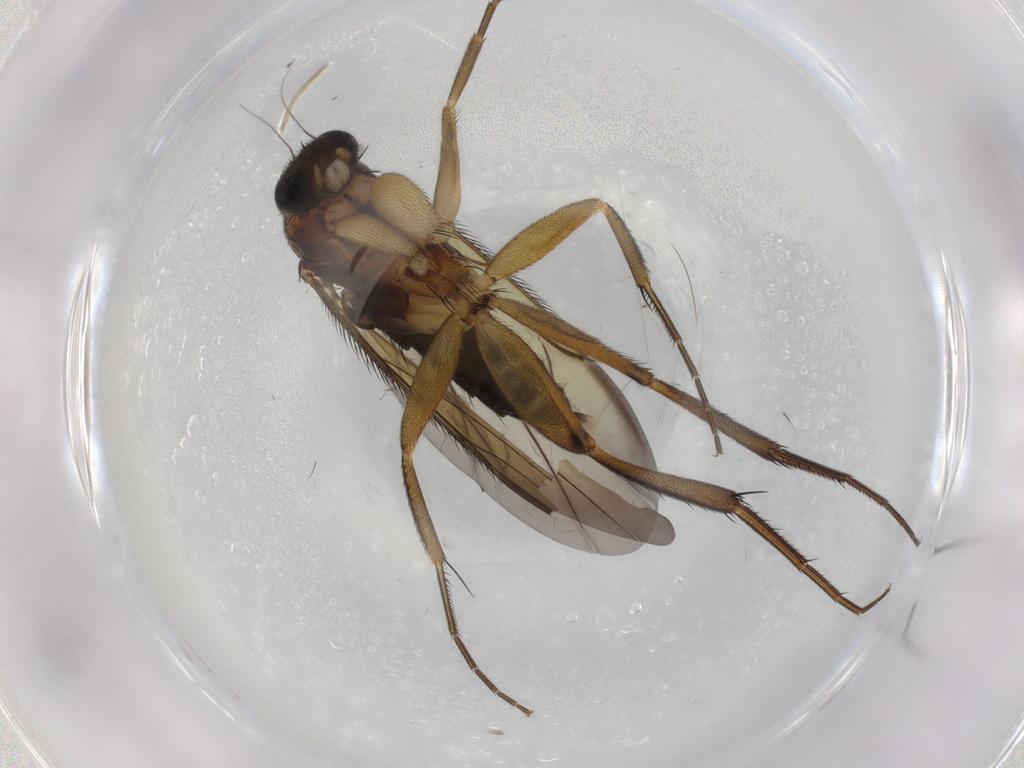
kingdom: Animalia
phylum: Arthropoda
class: Insecta
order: Diptera
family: Phoridae
